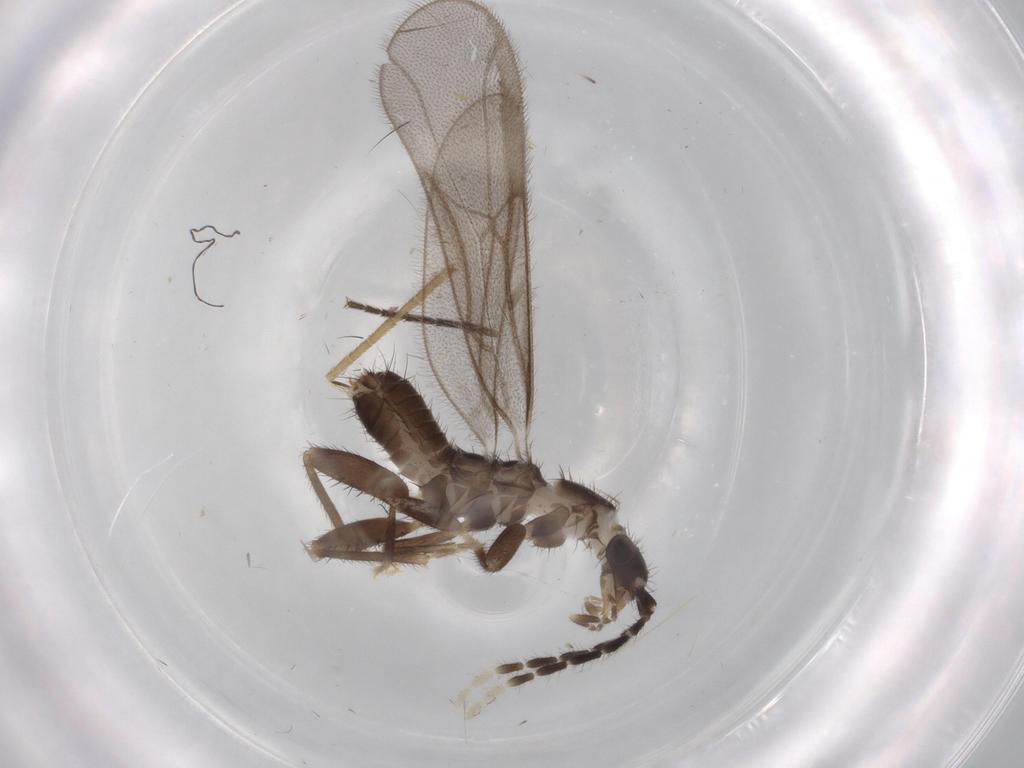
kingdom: Animalia
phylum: Arthropoda
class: Insecta
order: Orthoptera
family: Gryllidae
